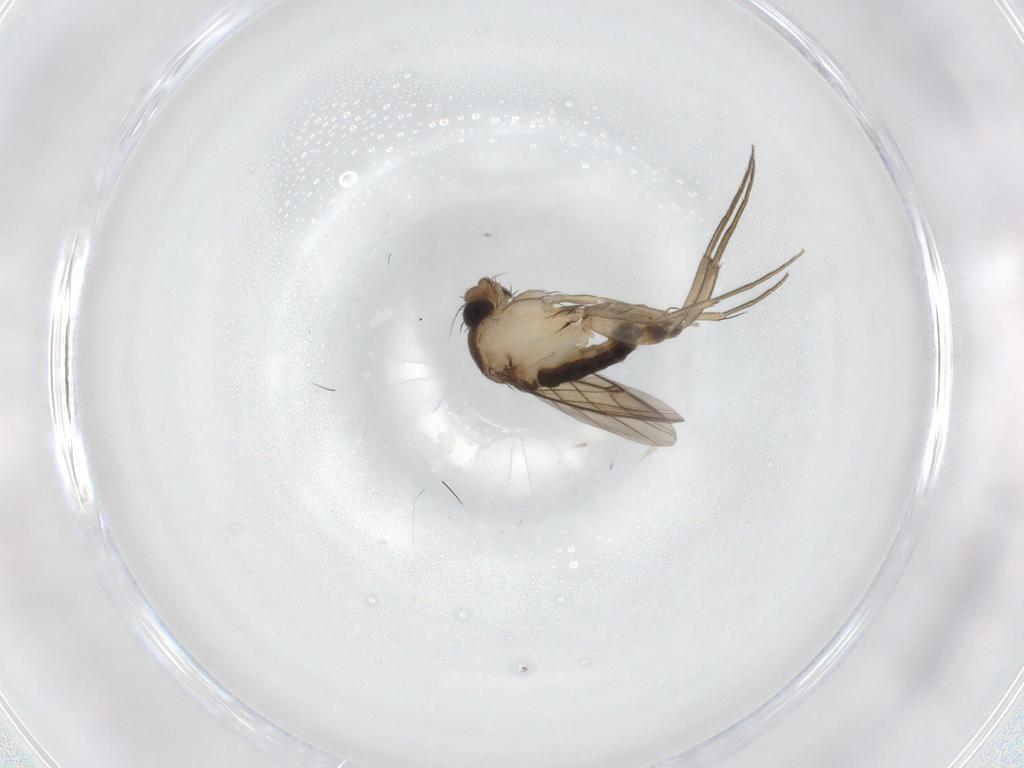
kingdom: Animalia
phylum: Arthropoda
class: Insecta
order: Diptera
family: Phoridae
